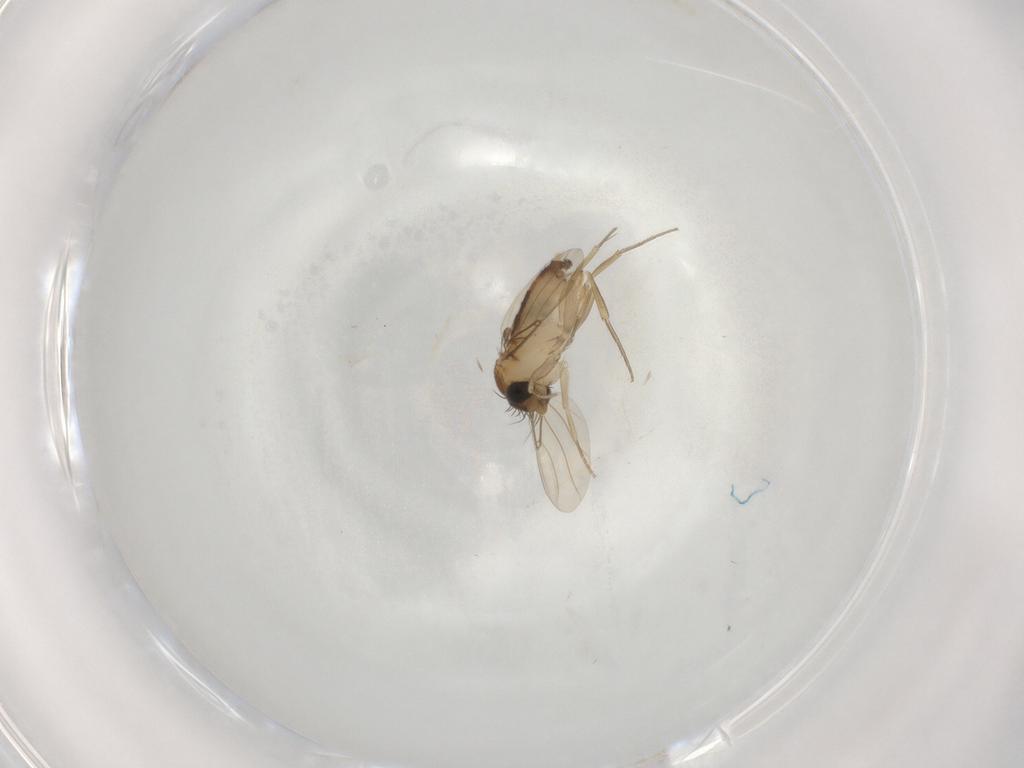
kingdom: Animalia
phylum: Arthropoda
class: Insecta
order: Diptera
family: Phoridae
